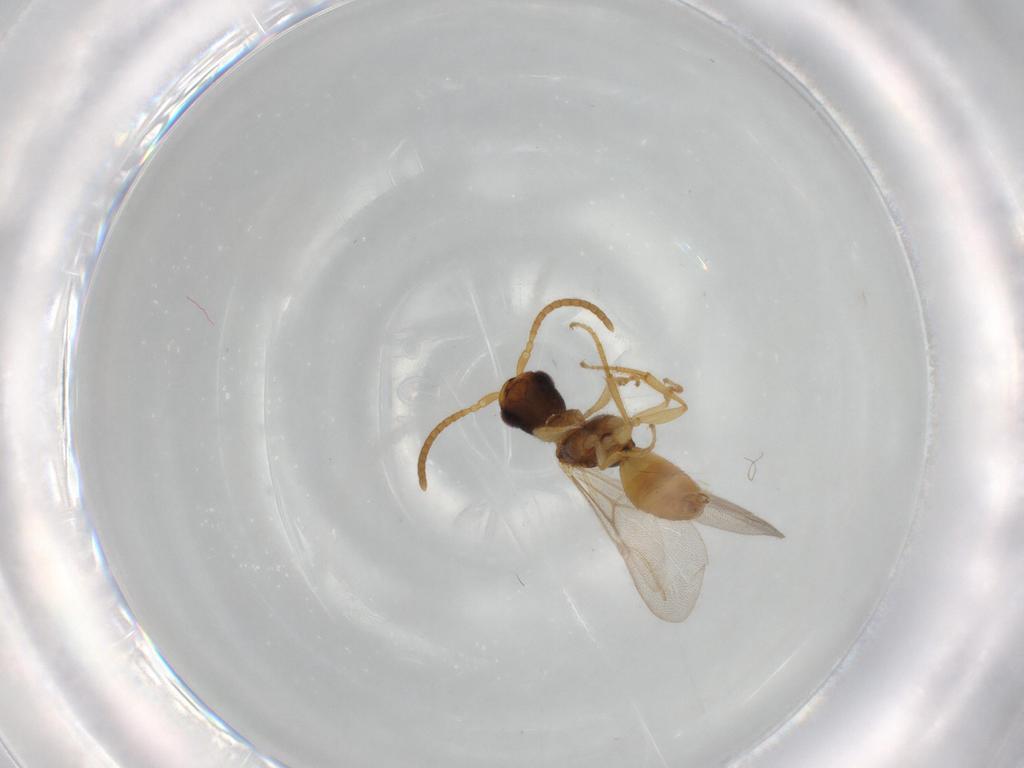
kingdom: Animalia
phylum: Arthropoda
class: Insecta
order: Hymenoptera
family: Bethylidae
